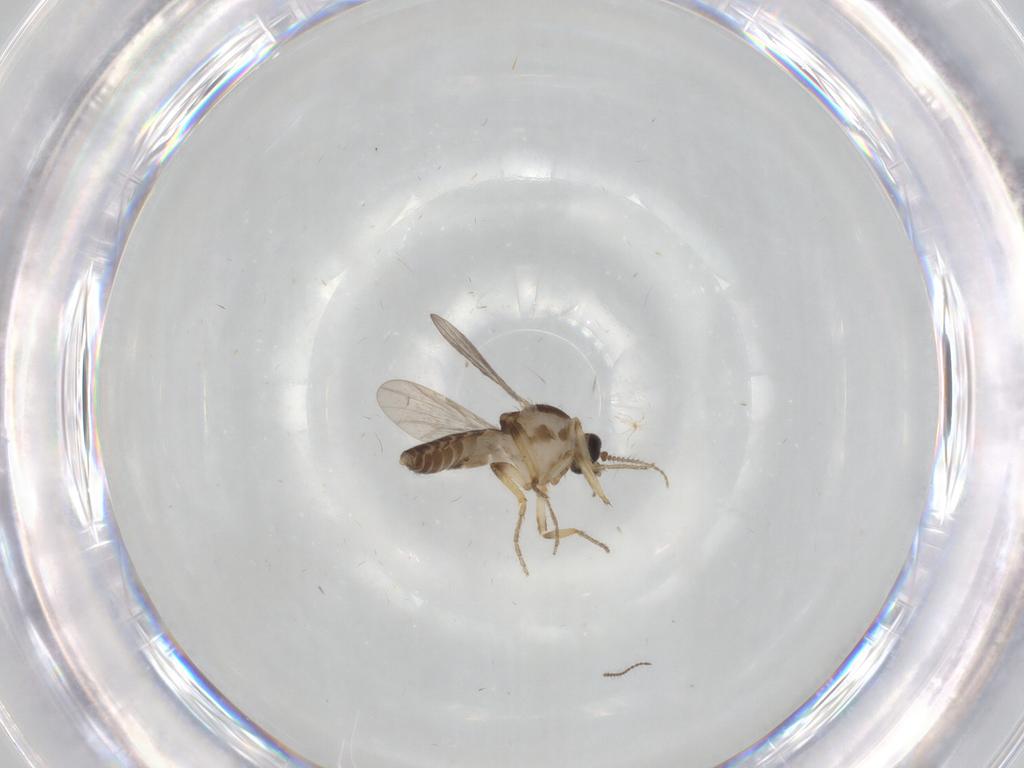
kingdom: Animalia
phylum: Arthropoda
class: Insecta
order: Diptera
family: Ceratopogonidae
